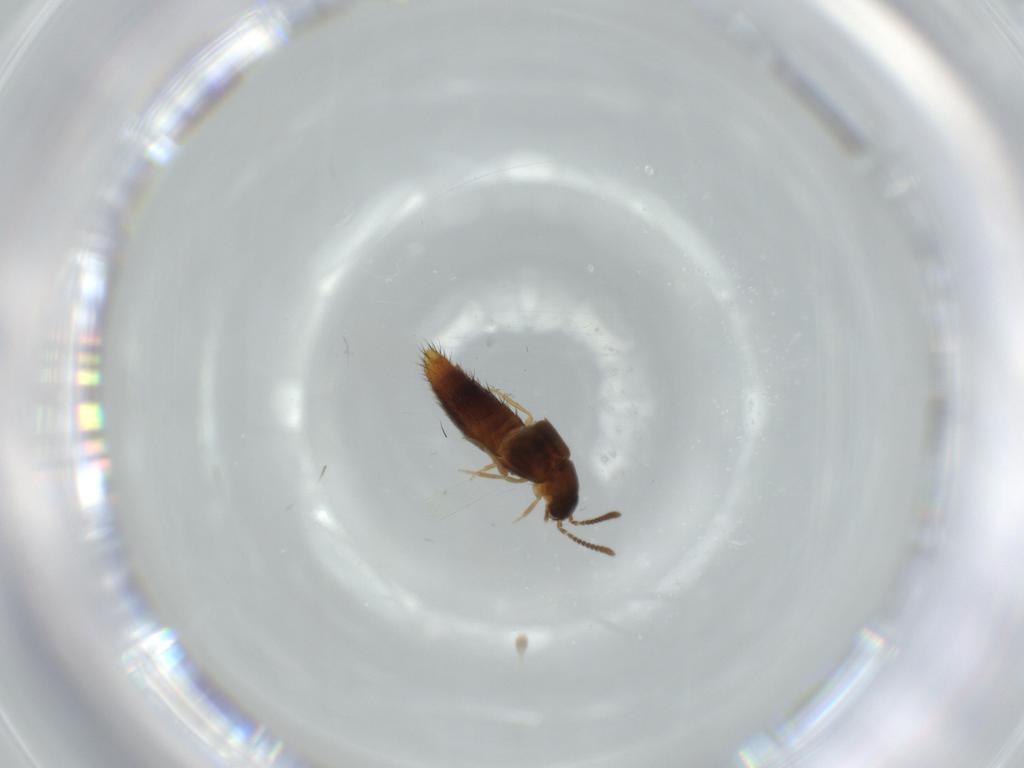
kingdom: Animalia
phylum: Arthropoda
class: Insecta
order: Coleoptera
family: Staphylinidae
